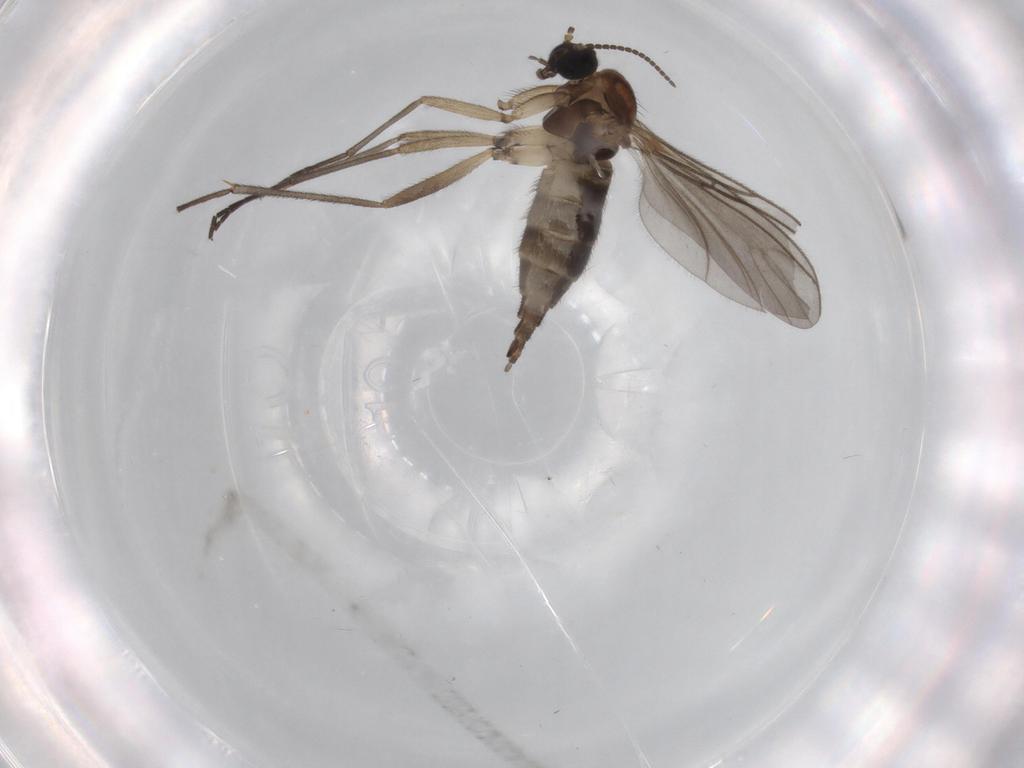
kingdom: Animalia
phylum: Arthropoda
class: Insecta
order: Diptera
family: Sciaridae
